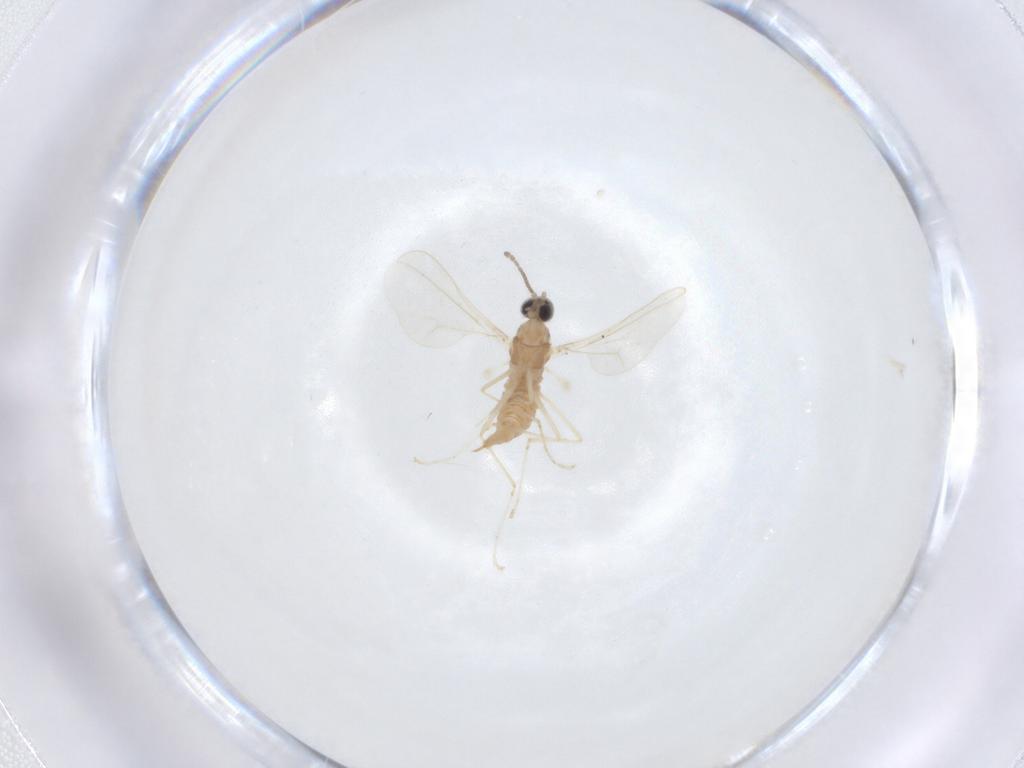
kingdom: Animalia
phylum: Arthropoda
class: Insecta
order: Diptera
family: Cecidomyiidae
